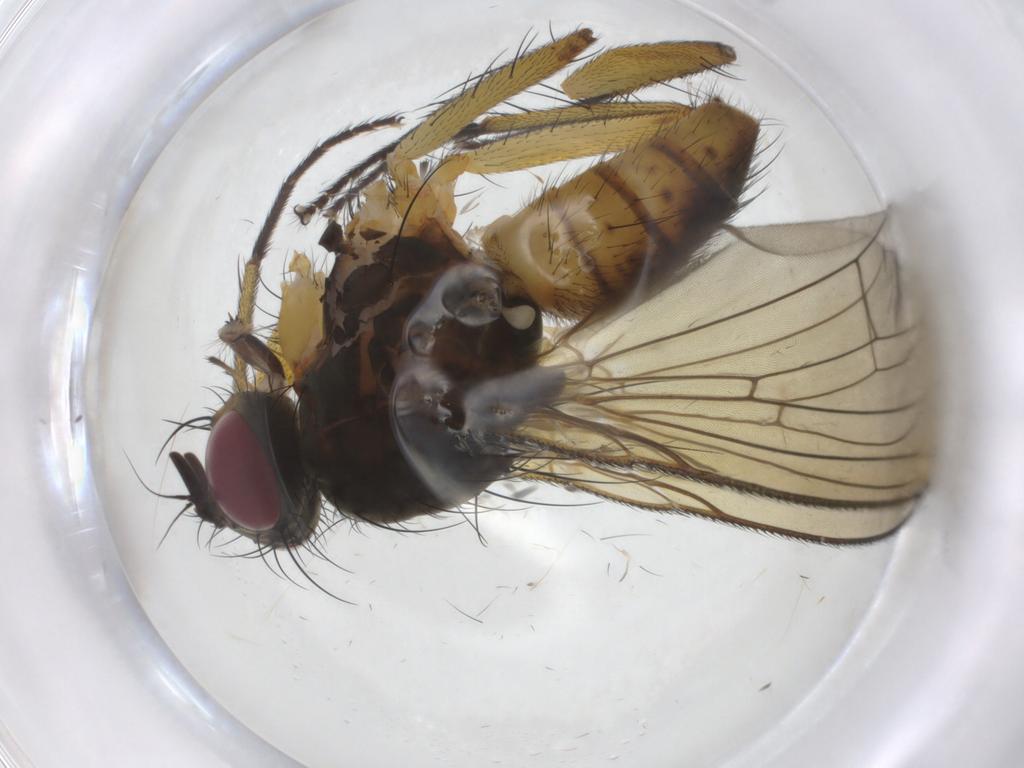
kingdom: Animalia
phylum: Arthropoda
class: Insecta
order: Diptera
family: Muscidae
